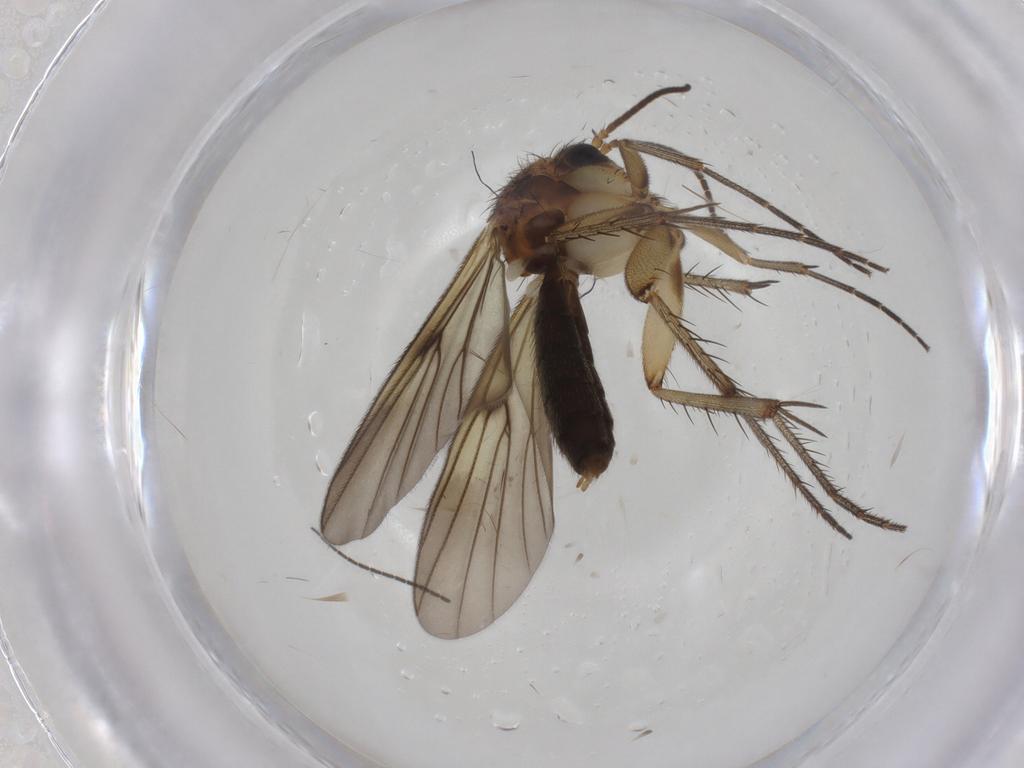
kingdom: Animalia
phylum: Arthropoda
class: Insecta
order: Diptera
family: Mycetophilidae
